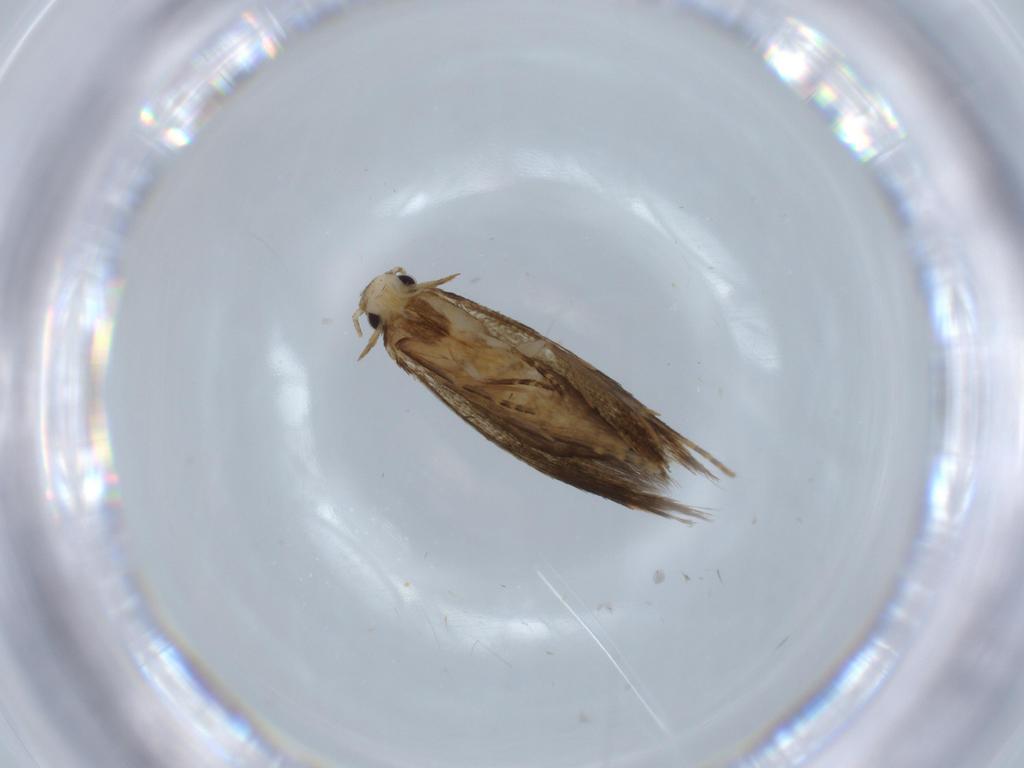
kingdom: Animalia
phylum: Arthropoda
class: Insecta
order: Lepidoptera
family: Tineidae
